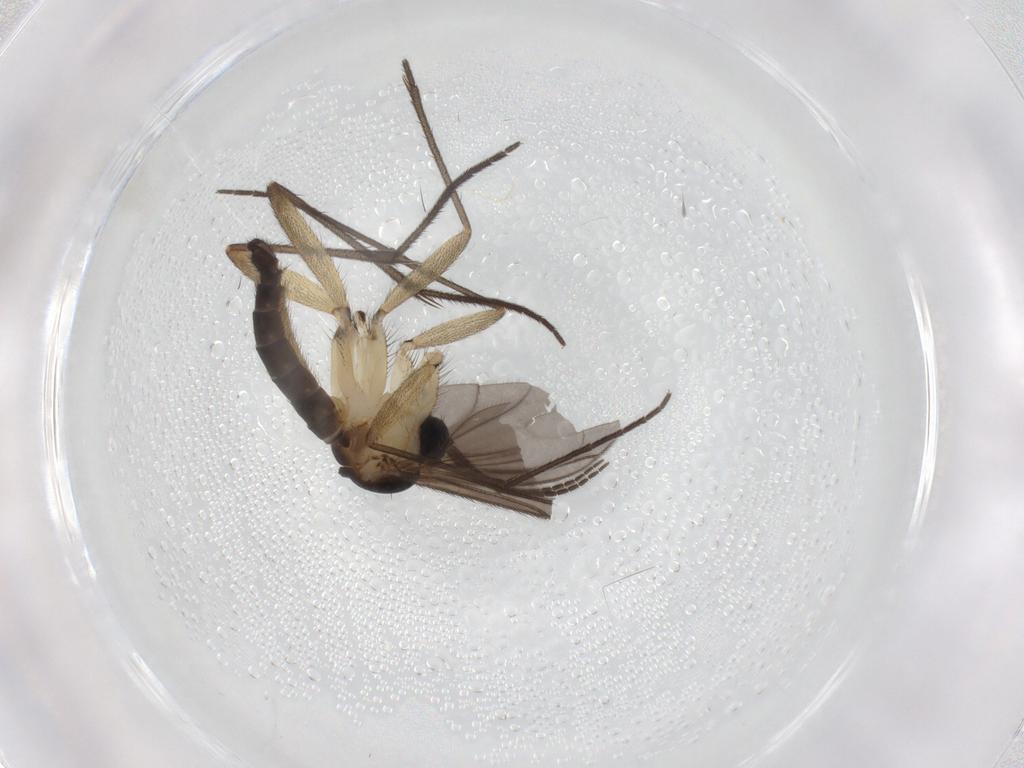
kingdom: Animalia
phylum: Arthropoda
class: Insecta
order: Diptera
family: Sciaridae
